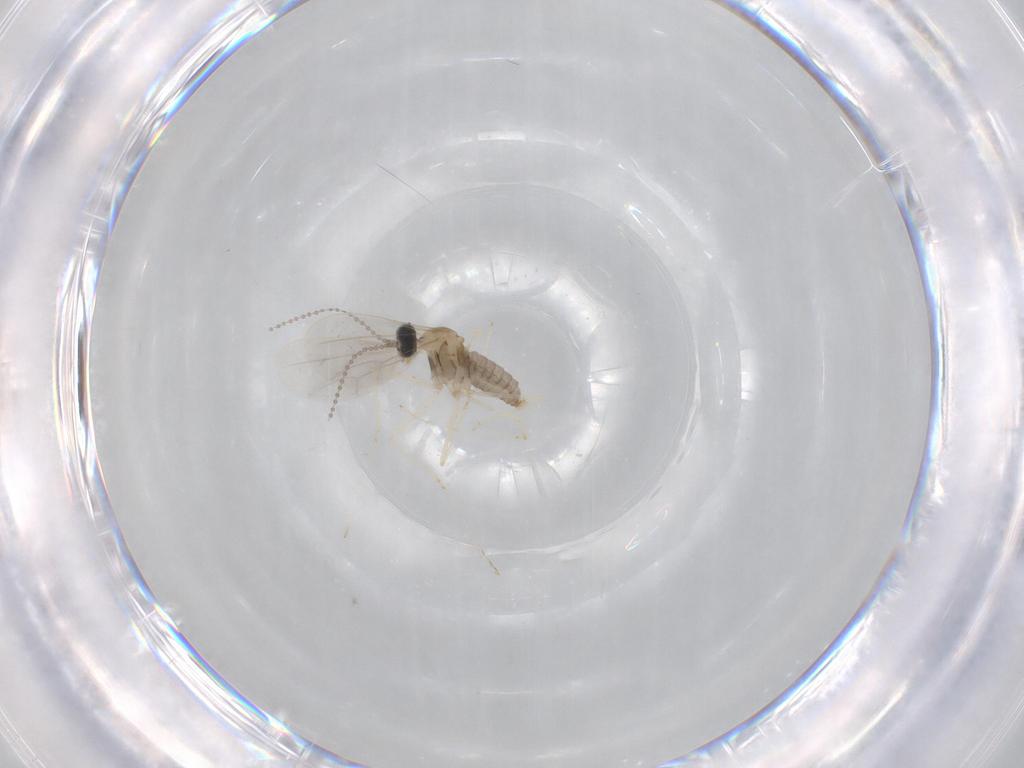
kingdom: Animalia
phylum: Arthropoda
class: Insecta
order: Diptera
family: Cecidomyiidae
